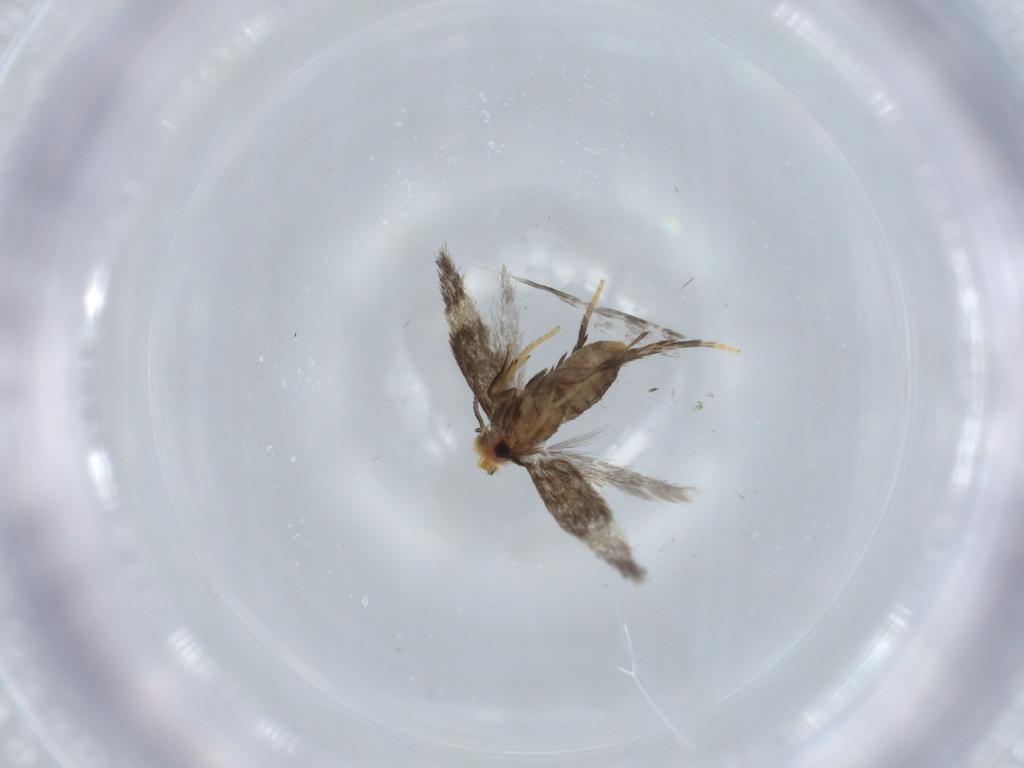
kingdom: Animalia
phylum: Arthropoda
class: Insecta
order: Lepidoptera
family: Nepticulidae
